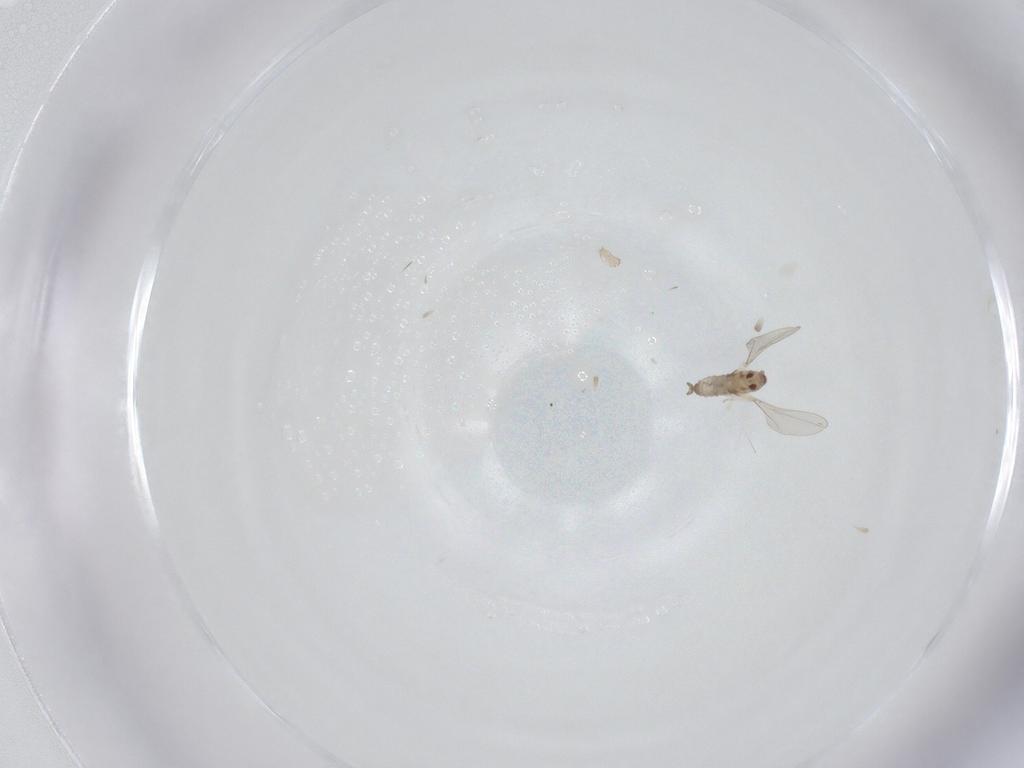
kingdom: Animalia
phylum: Arthropoda
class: Insecta
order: Diptera
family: Cecidomyiidae
